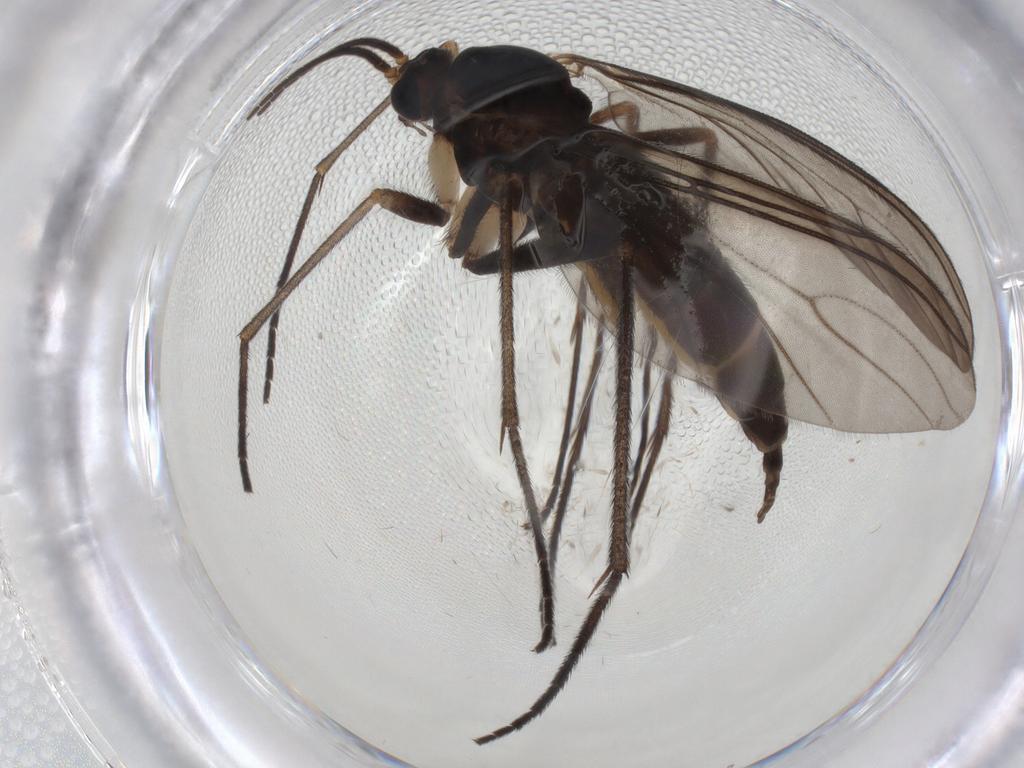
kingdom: Animalia
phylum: Arthropoda
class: Insecta
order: Diptera
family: Sciaridae
